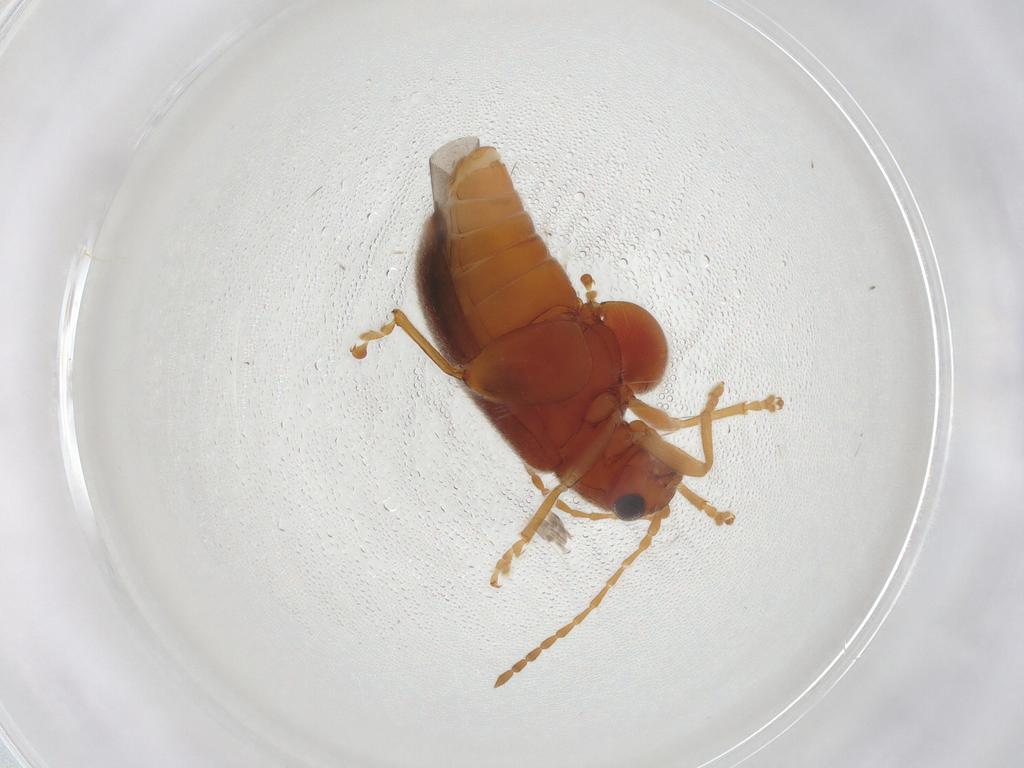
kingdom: Animalia
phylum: Arthropoda
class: Insecta
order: Coleoptera
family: Chrysomelidae
